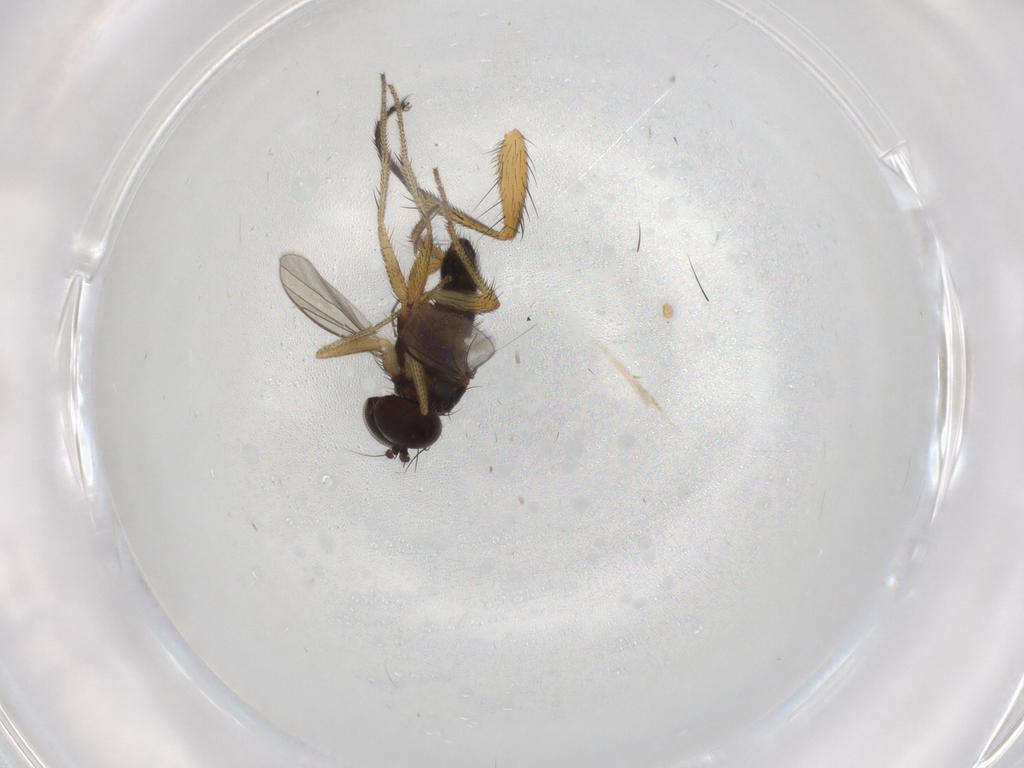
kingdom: Animalia
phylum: Arthropoda
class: Insecta
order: Diptera
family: Muscidae
